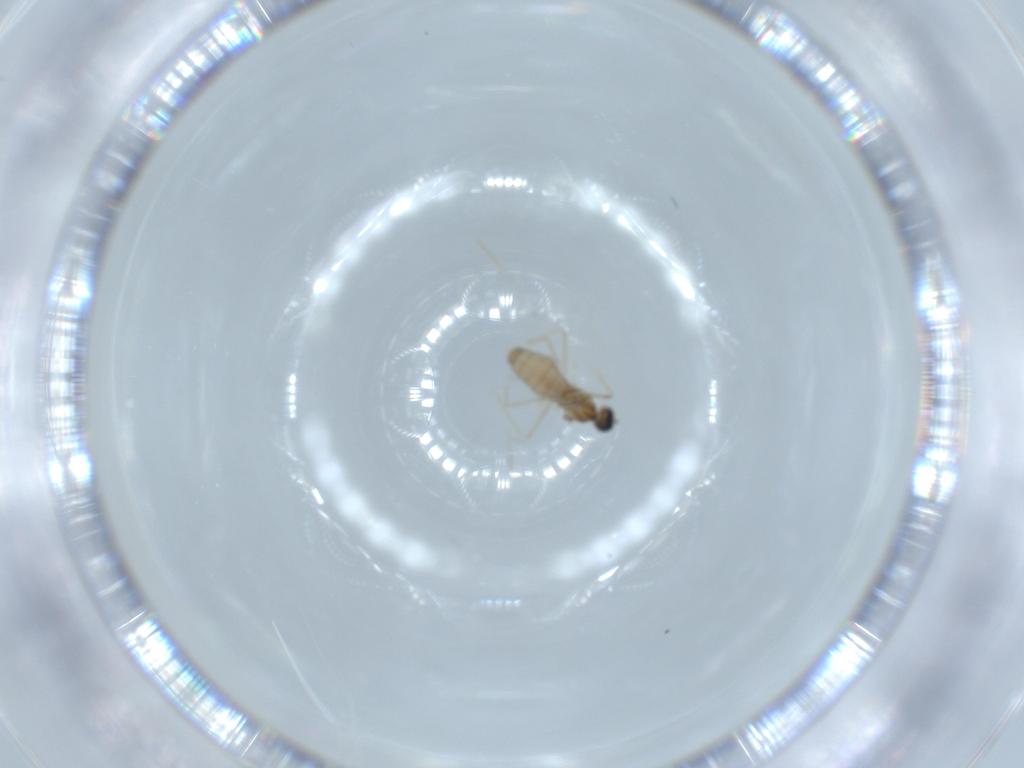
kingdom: Animalia
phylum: Arthropoda
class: Insecta
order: Diptera
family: Cecidomyiidae
